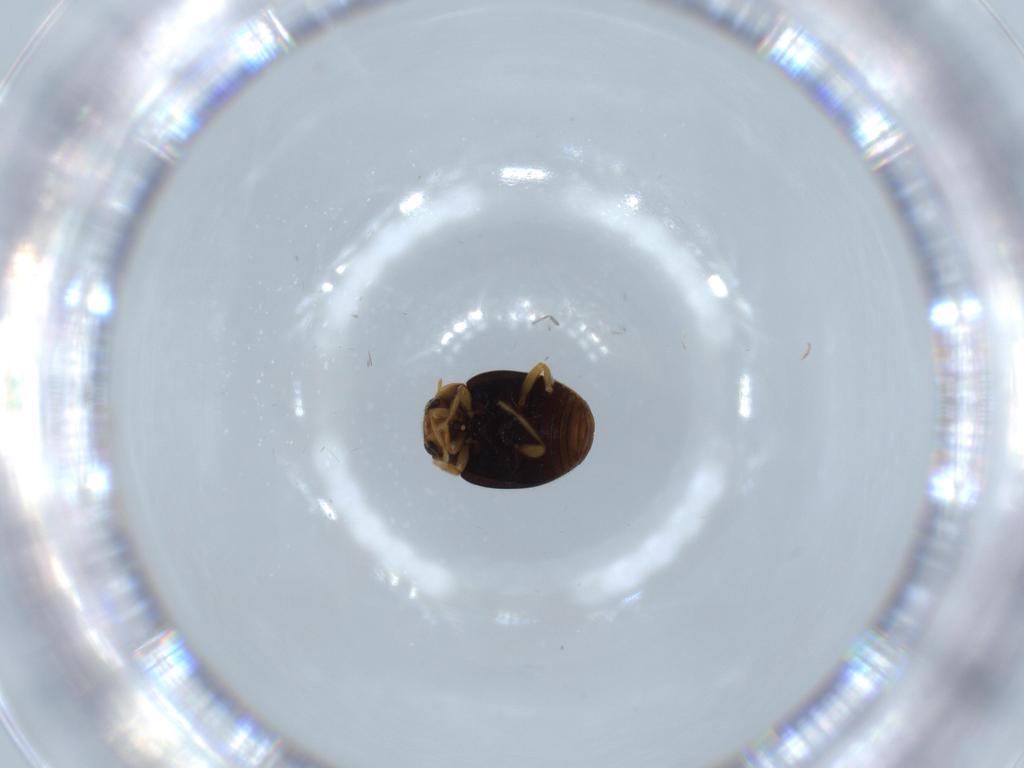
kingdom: Animalia
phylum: Arthropoda
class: Insecta
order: Coleoptera
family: Coccinellidae
